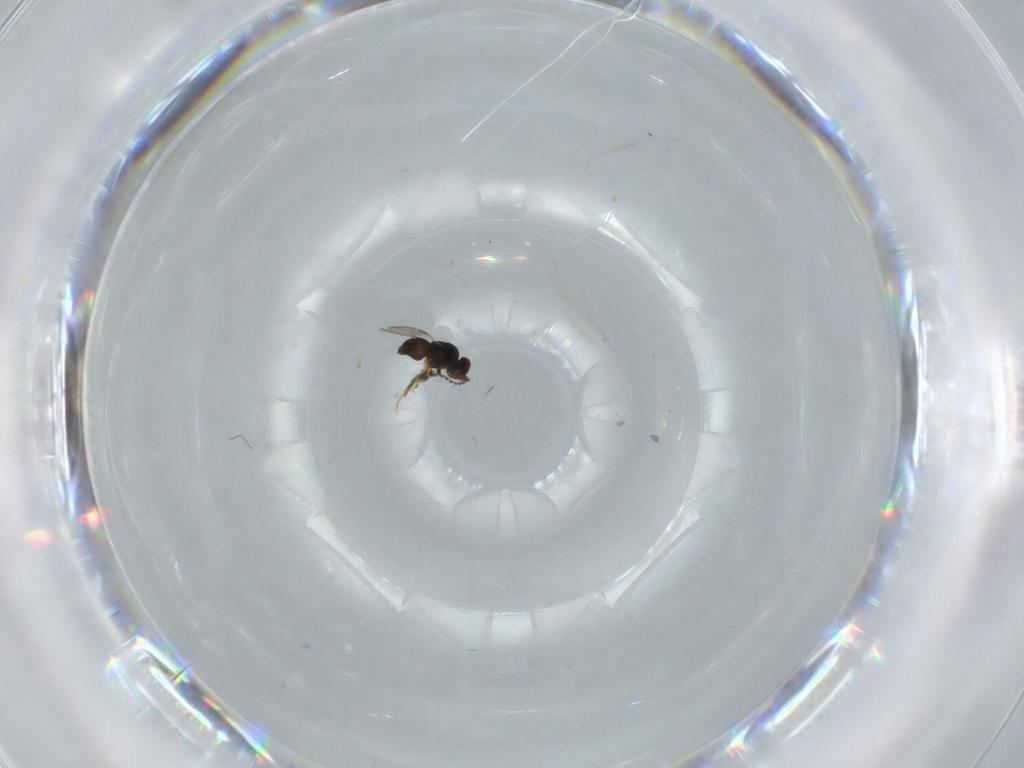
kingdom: Animalia
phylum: Arthropoda
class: Insecta
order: Hymenoptera
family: Ceraphronidae
